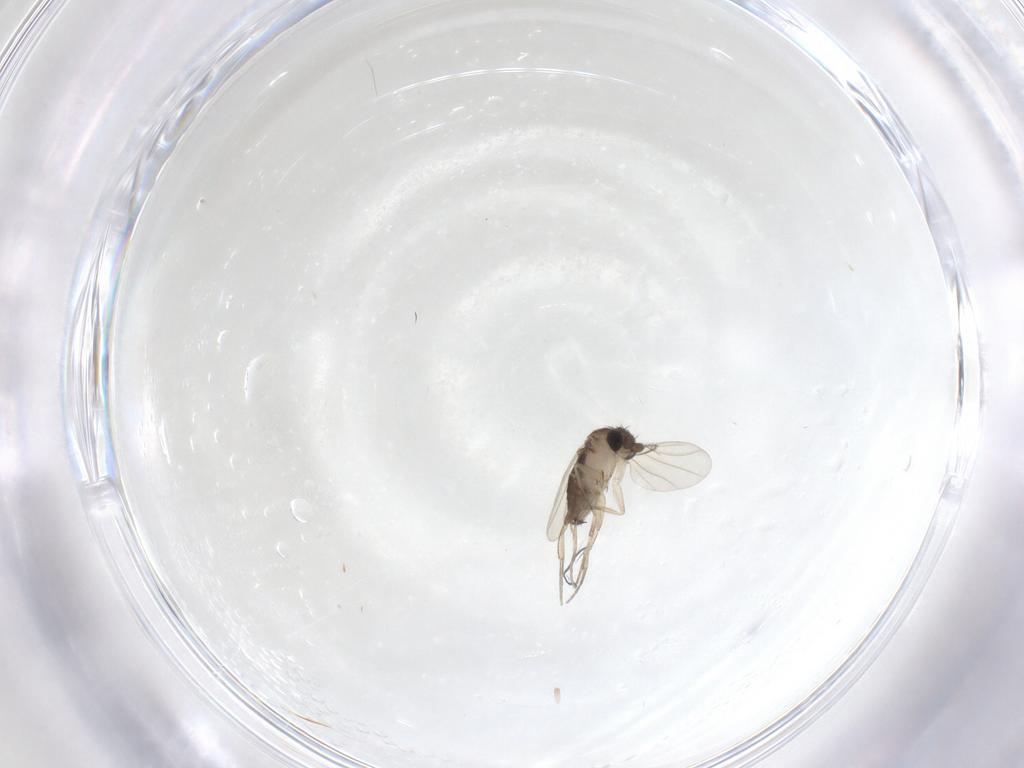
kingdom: Animalia
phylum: Arthropoda
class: Insecta
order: Diptera
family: Phoridae
